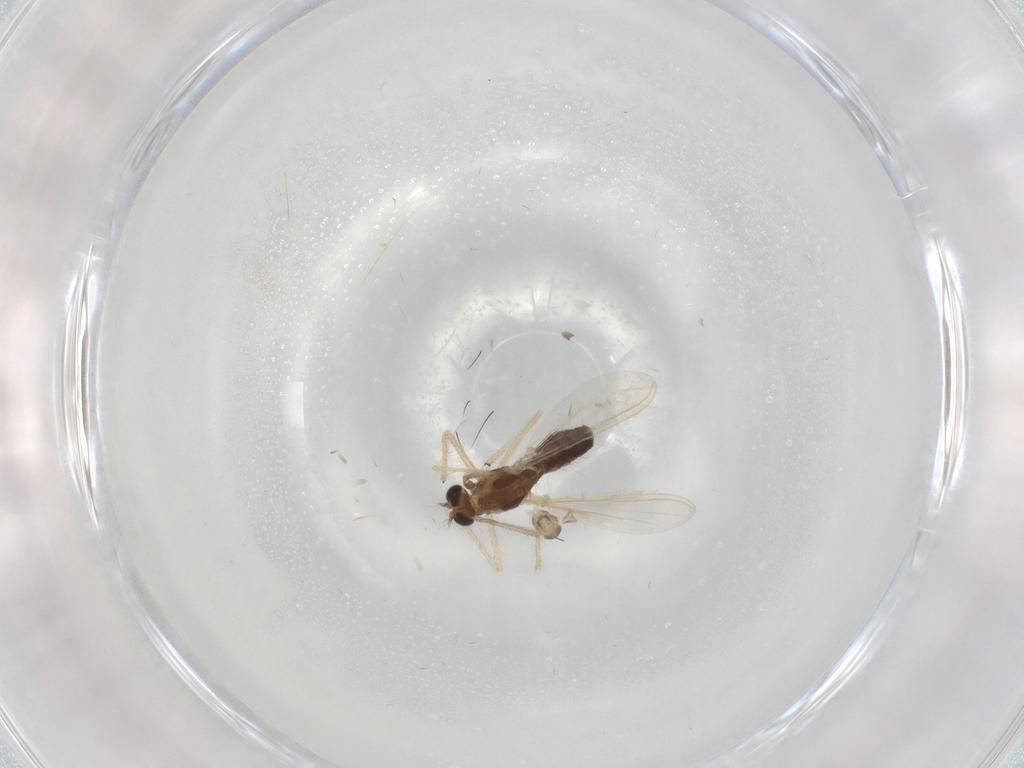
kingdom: Animalia
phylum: Arthropoda
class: Insecta
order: Diptera
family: Chironomidae
